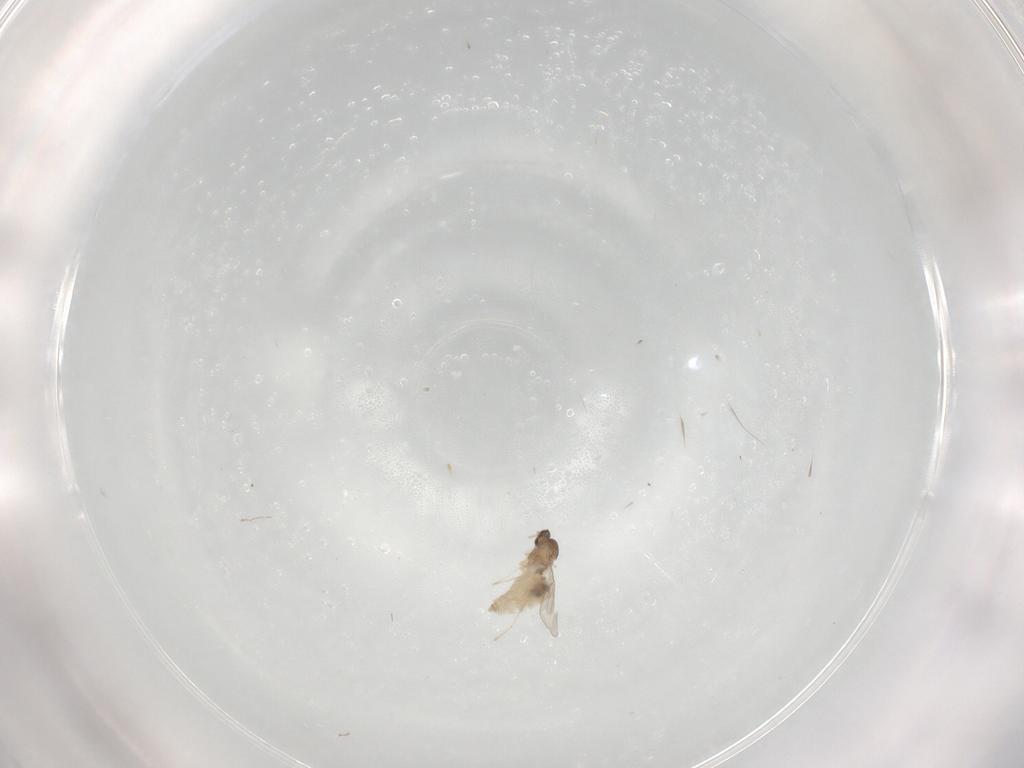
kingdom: Animalia
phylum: Arthropoda
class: Insecta
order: Diptera
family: Cecidomyiidae
